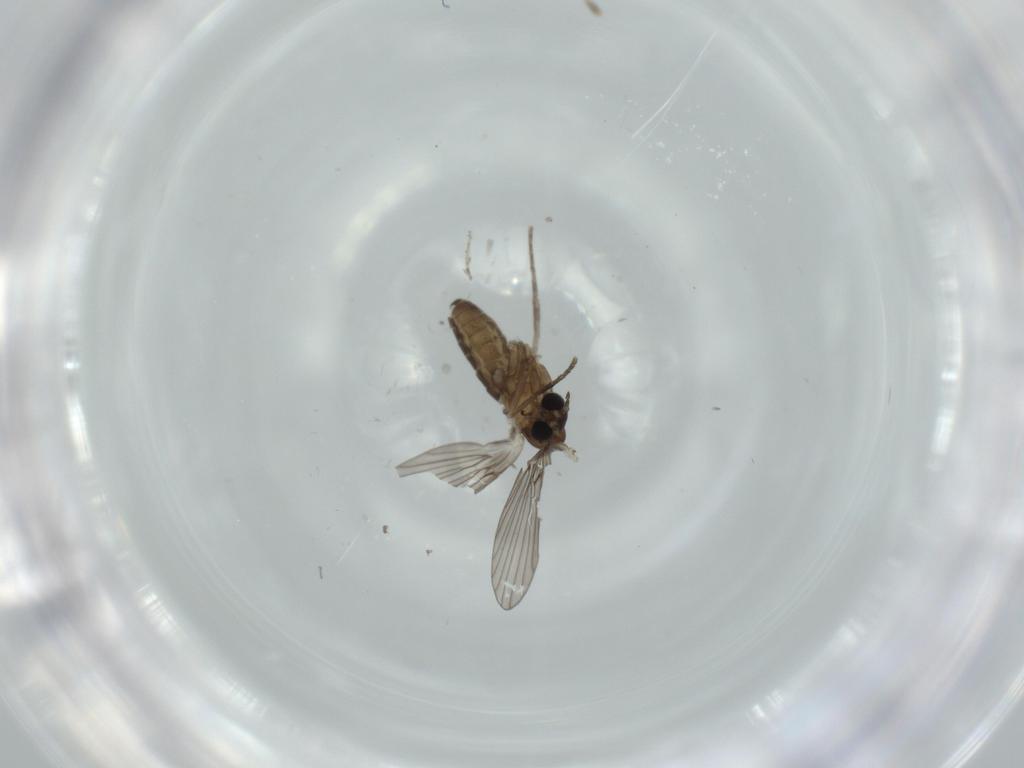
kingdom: Animalia
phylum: Arthropoda
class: Insecta
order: Diptera
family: Psychodidae
